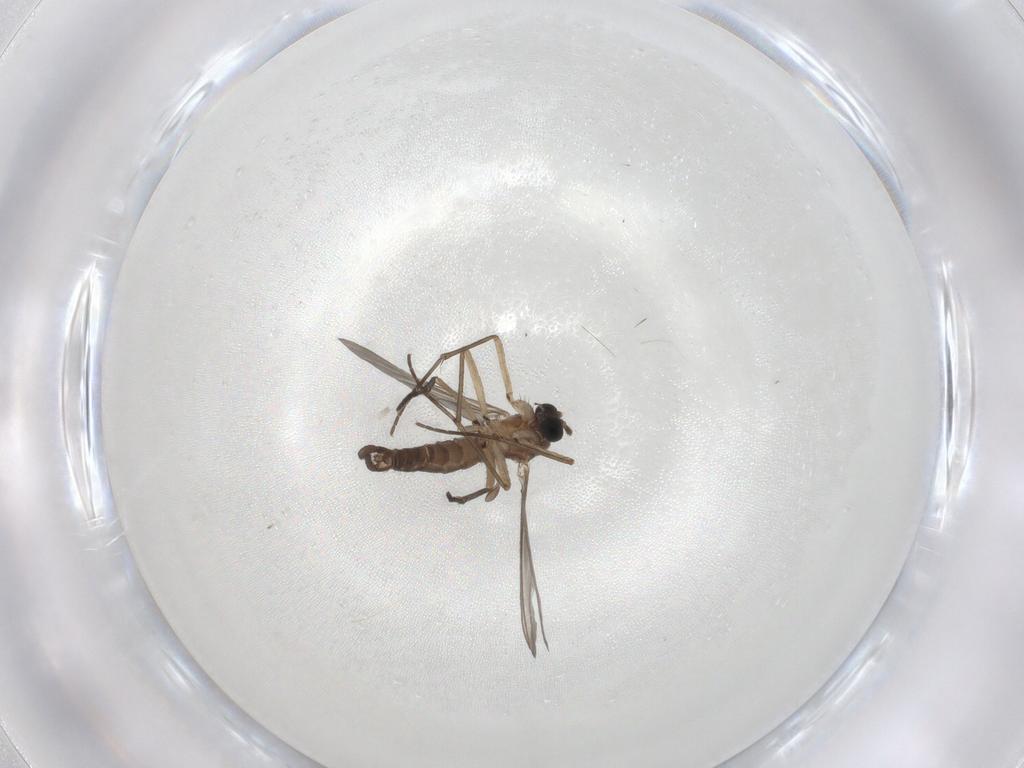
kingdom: Animalia
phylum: Arthropoda
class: Insecta
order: Diptera
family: Sciaridae
